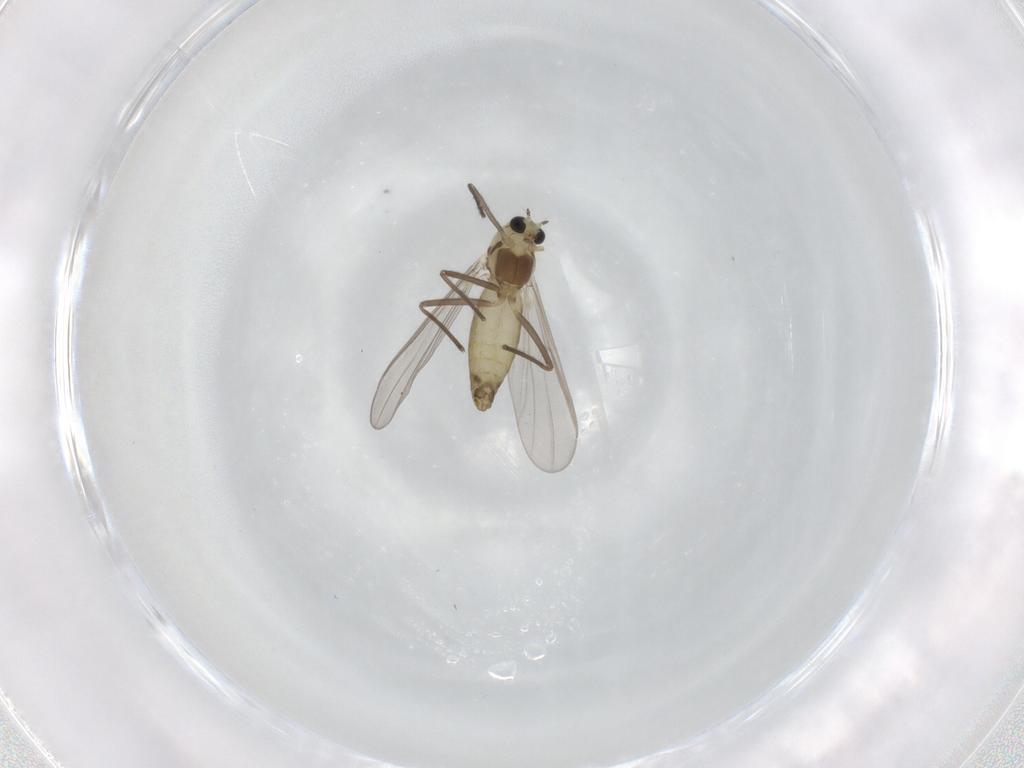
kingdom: Animalia
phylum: Arthropoda
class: Insecta
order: Diptera
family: Chironomidae
